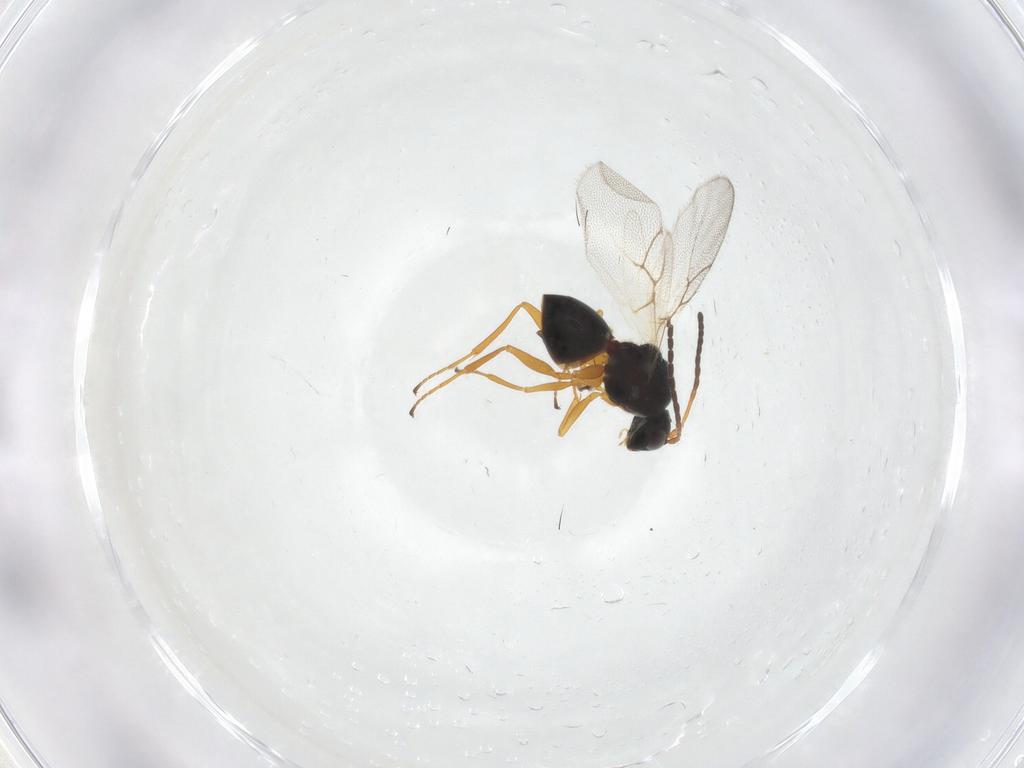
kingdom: Animalia
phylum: Arthropoda
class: Insecta
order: Hymenoptera
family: Figitidae
